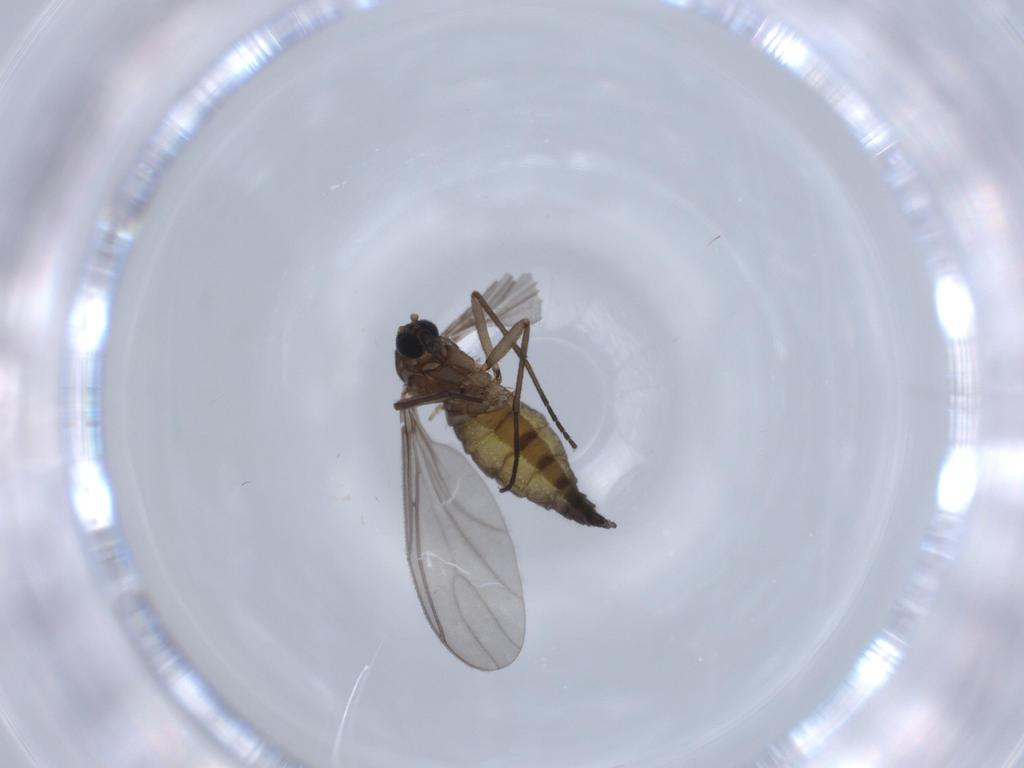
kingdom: Animalia
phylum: Arthropoda
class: Insecta
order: Diptera
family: Sciaridae
